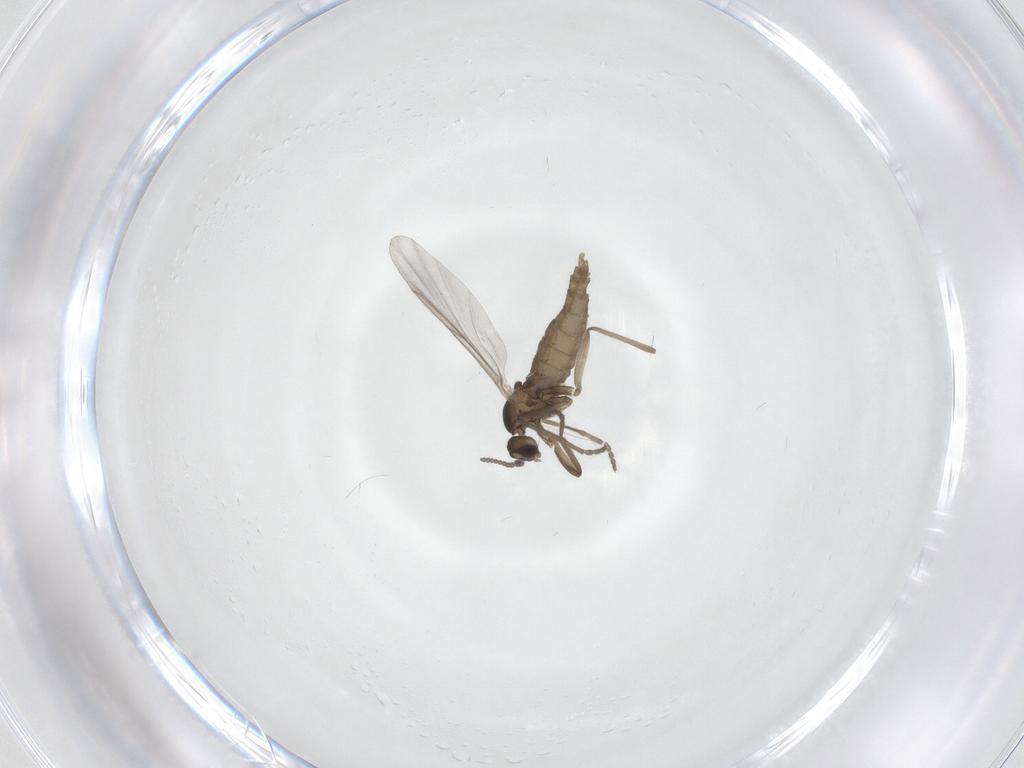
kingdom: Animalia
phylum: Arthropoda
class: Insecta
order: Diptera
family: Cecidomyiidae
